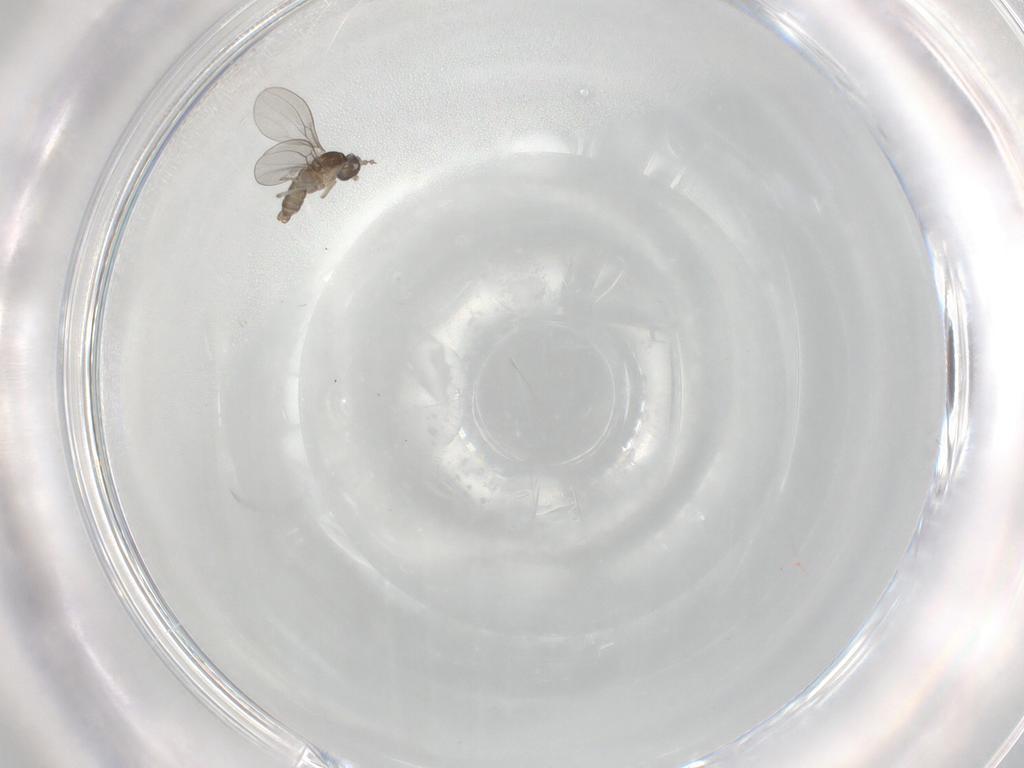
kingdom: Animalia
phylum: Arthropoda
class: Insecta
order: Diptera
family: Cecidomyiidae
